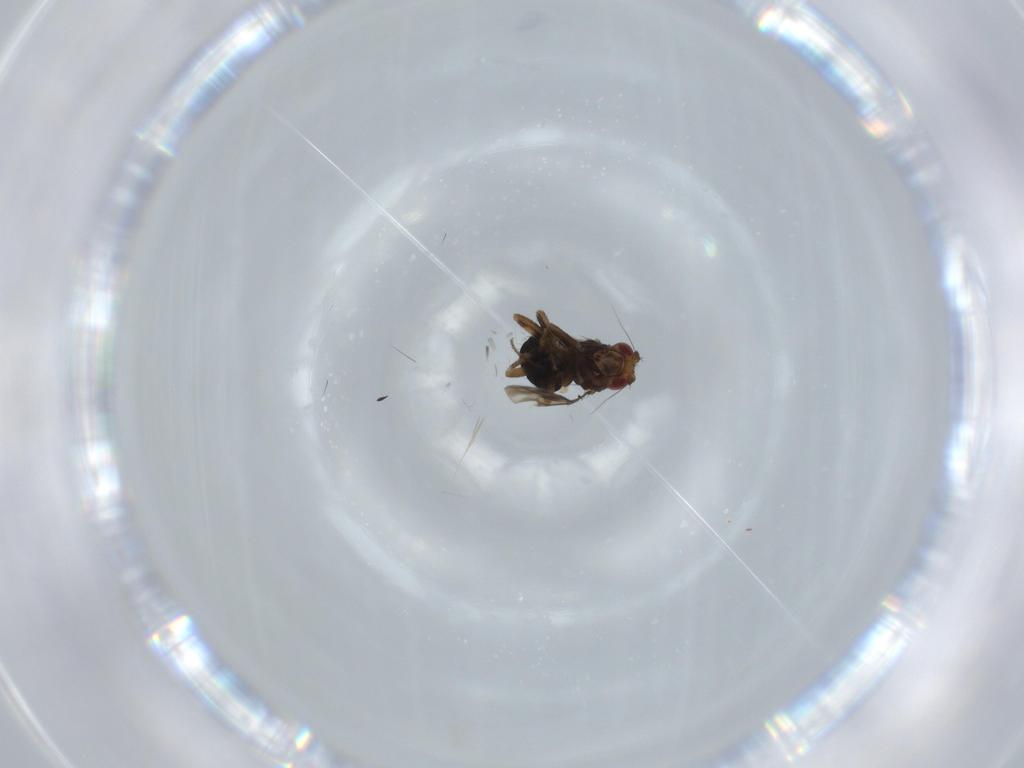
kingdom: Animalia
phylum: Arthropoda
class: Insecta
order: Diptera
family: Sphaeroceridae
